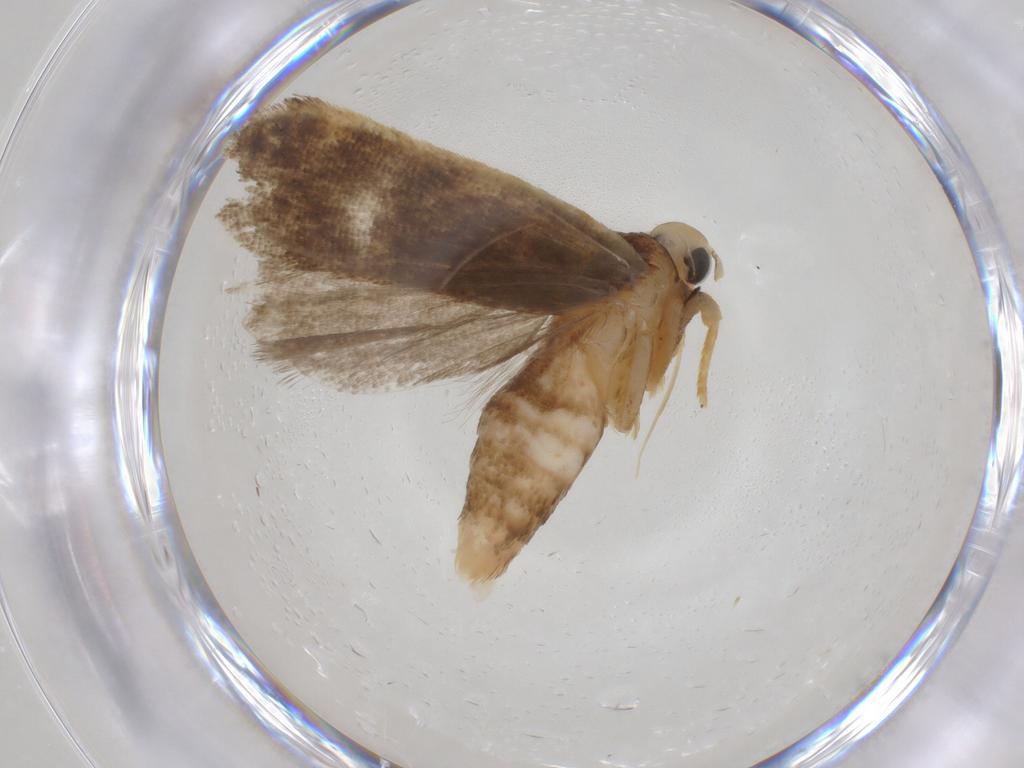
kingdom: Animalia
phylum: Arthropoda
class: Insecta
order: Lepidoptera
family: Gelechiidae
